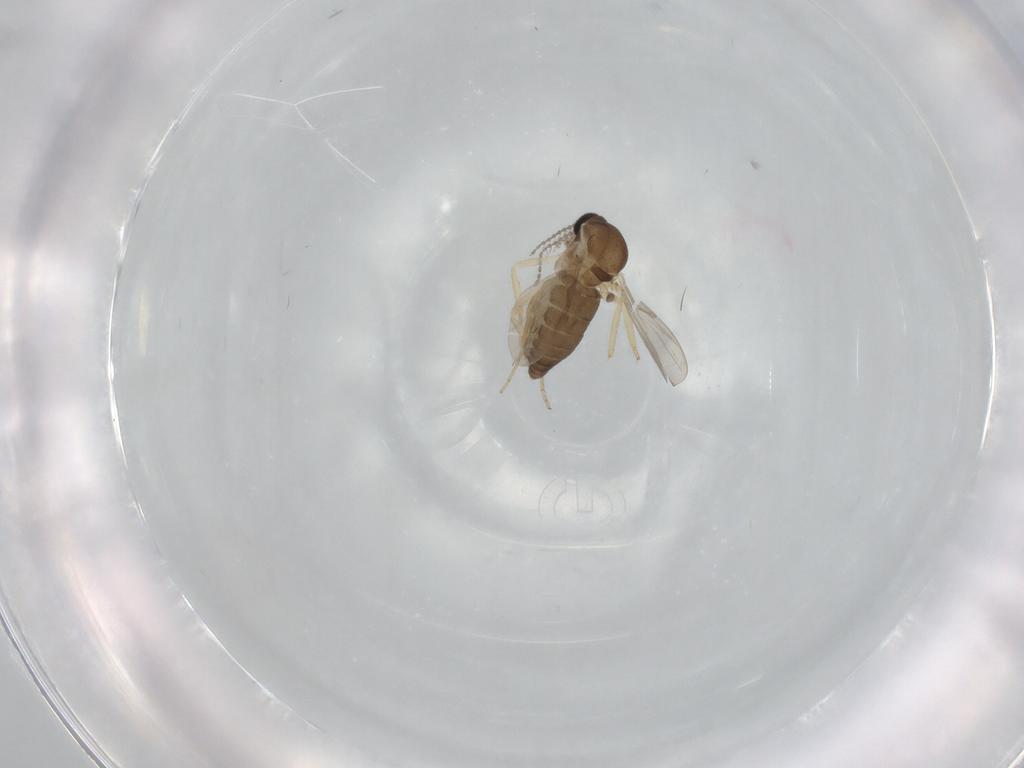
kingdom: Animalia
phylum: Arthropoda
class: Insecta
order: Diptera
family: Ceratopogonidae
